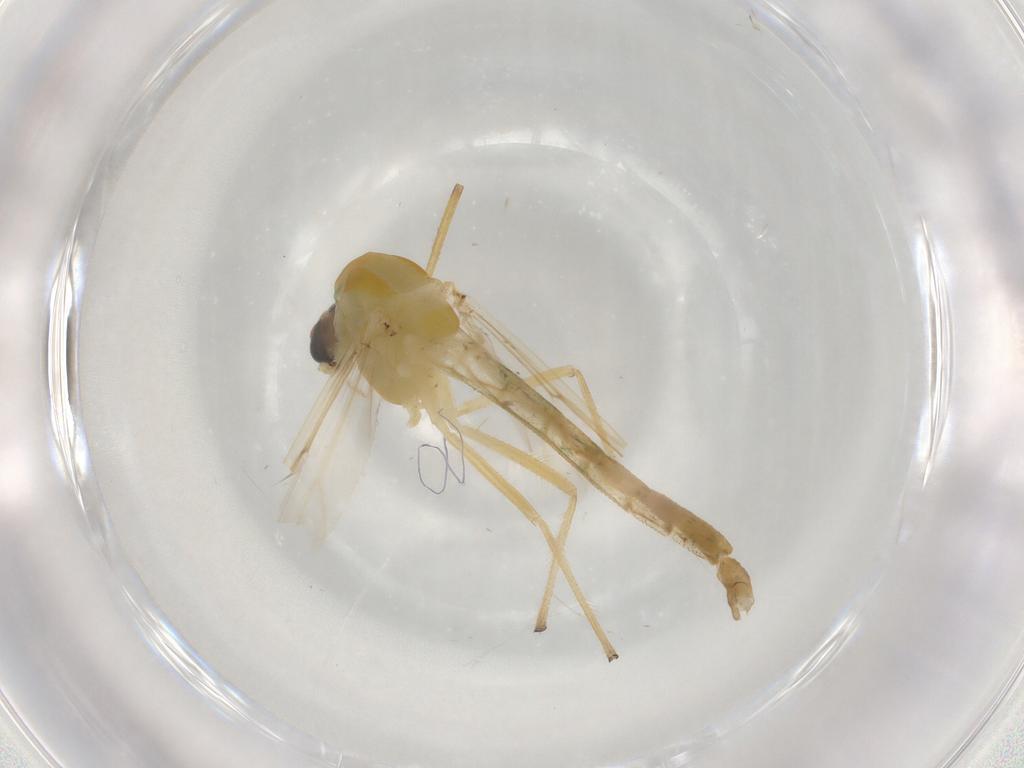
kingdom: Animalia
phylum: Arthropoda
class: Insecta
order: Diptera
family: Chironomidae
